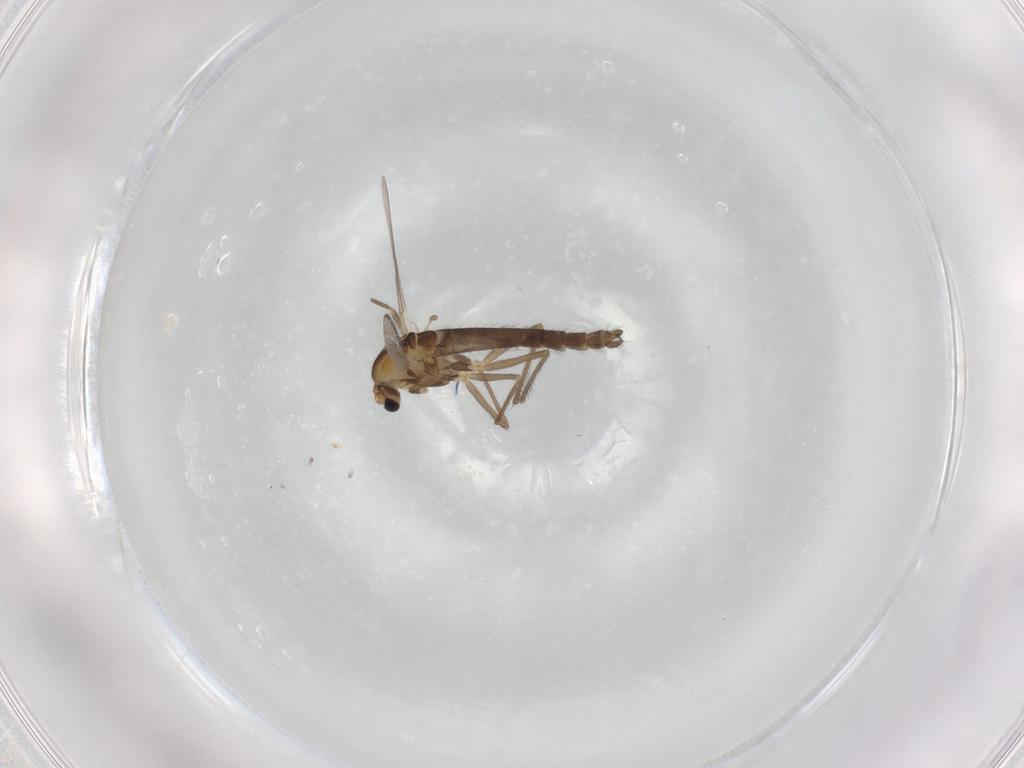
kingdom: Animalia
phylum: Arthropoda
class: Insecta
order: Diptera
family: Chironomidae
